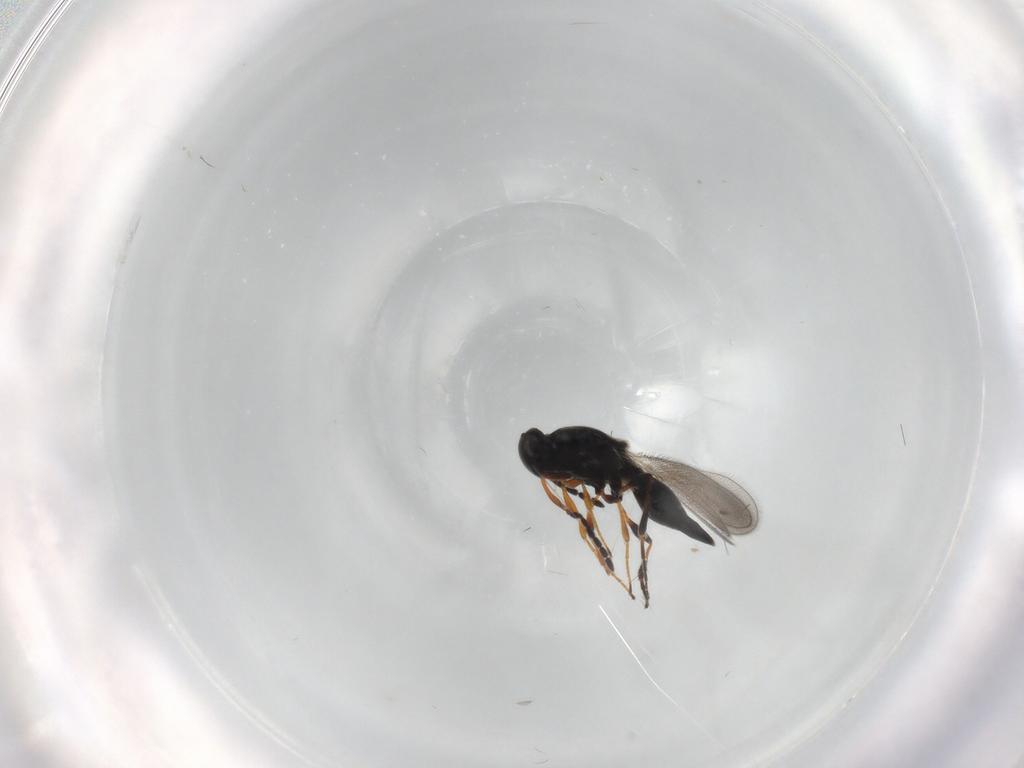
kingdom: Animalia
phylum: Arthropoda
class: Insecta
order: Hymenoptera
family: Platygastridae
